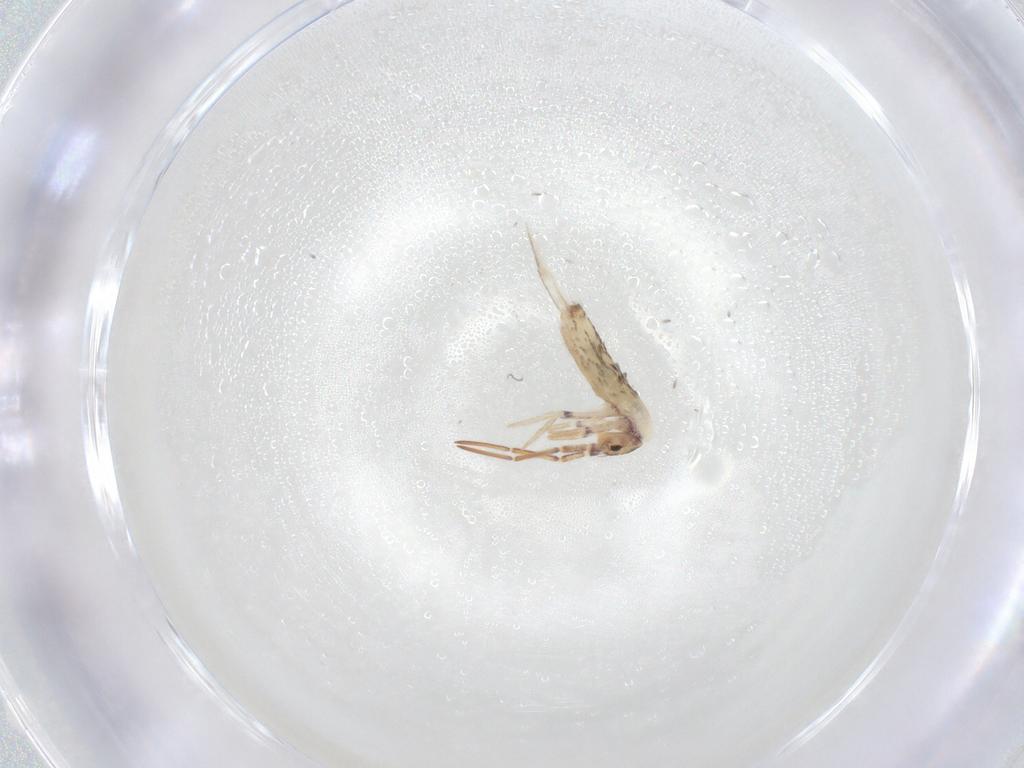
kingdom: Animalia
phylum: Arthropoda
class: Collembola
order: Entomobryomorpha
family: Entomobryidae
